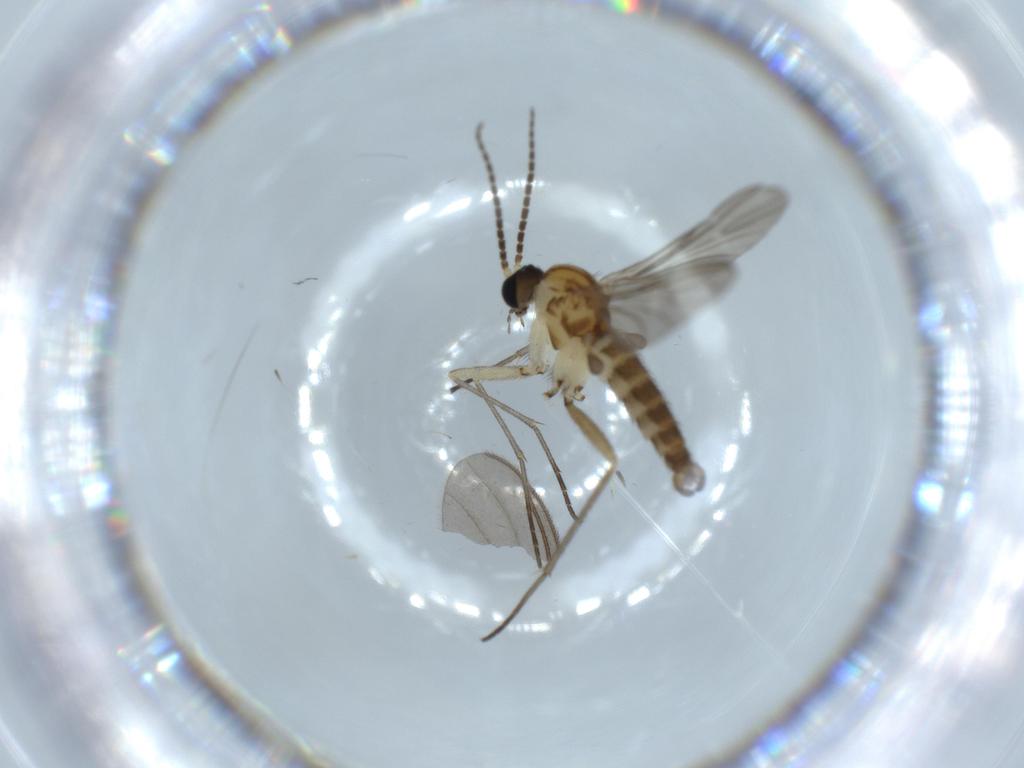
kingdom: Animalia
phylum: Arthropoda
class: Insecta
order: Diptera
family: Sciaridae
